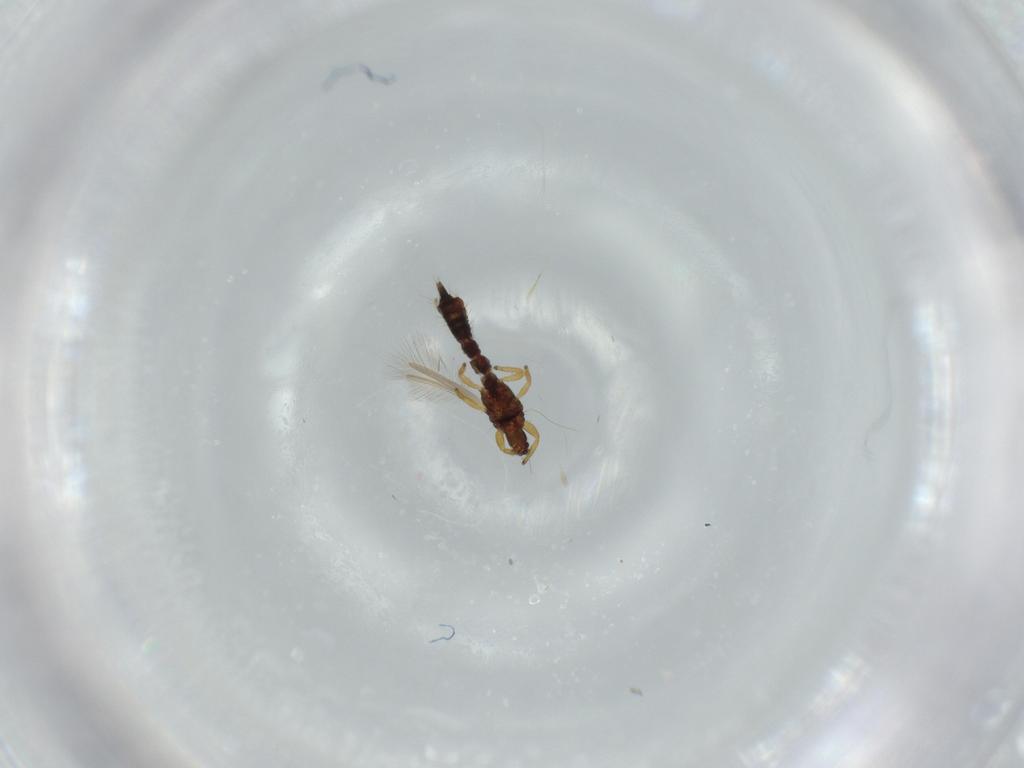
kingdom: Animalia
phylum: Arthropoda
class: Insecta
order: Thysanoptera
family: Phlaeothripidae
